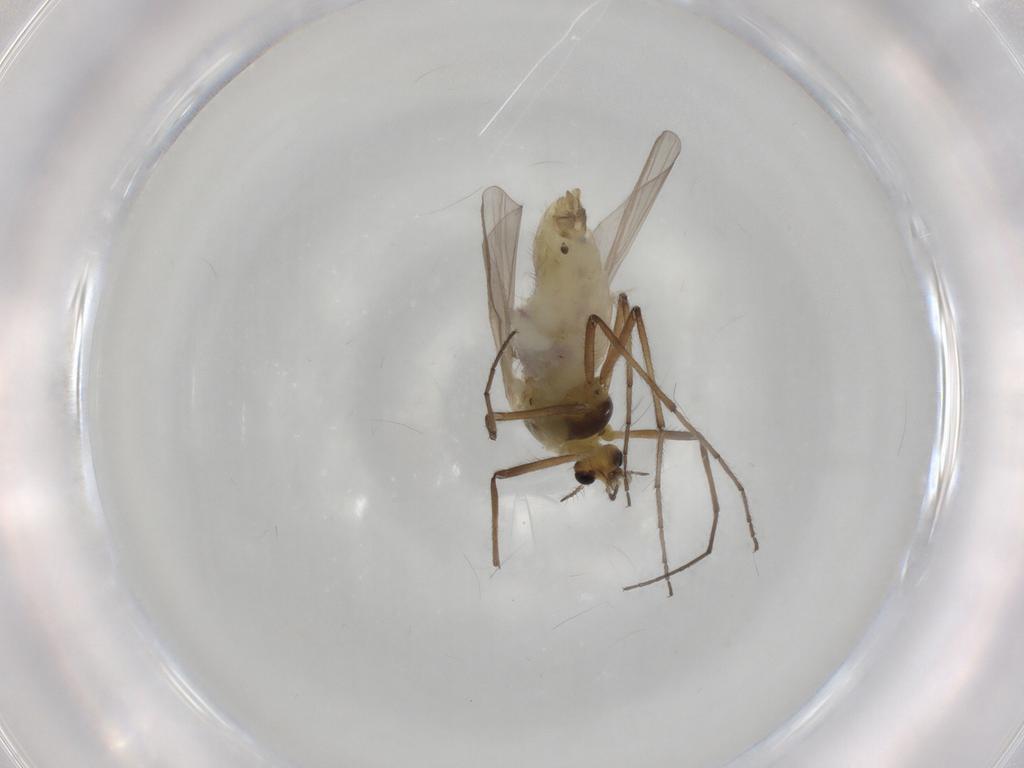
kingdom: Animalia
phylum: Arthropoda
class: Insecta
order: Diptera
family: Chironomidae
